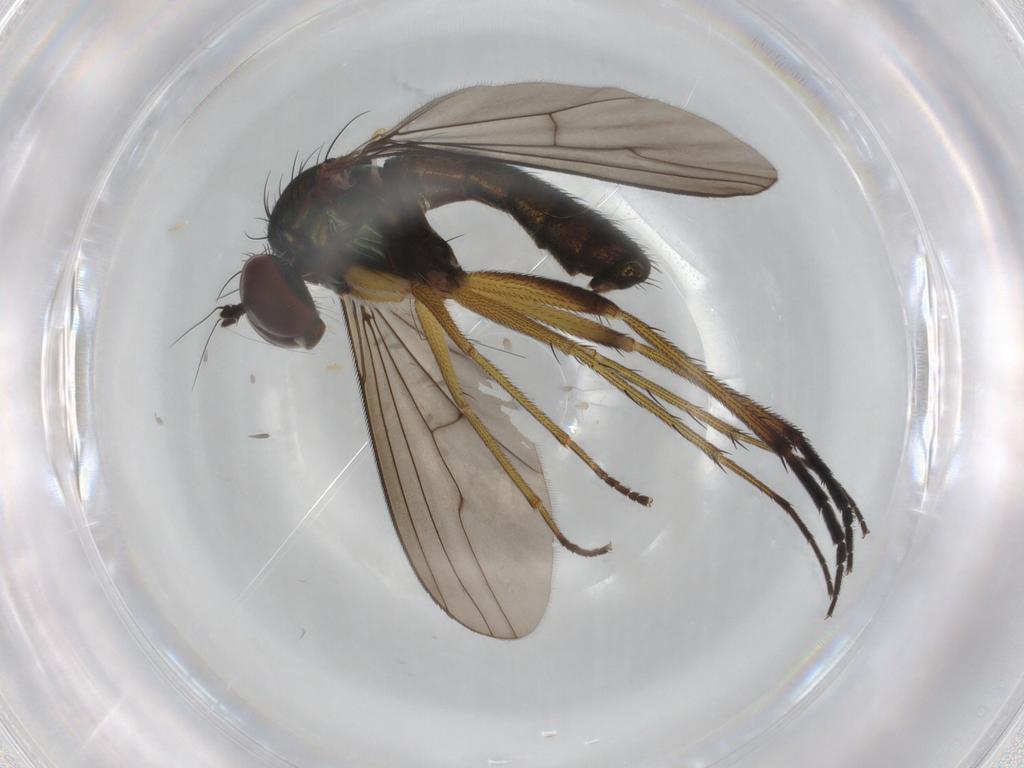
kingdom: Animalia
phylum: Arthropoda
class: Insecta
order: Diptera
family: Dolichopodidae
